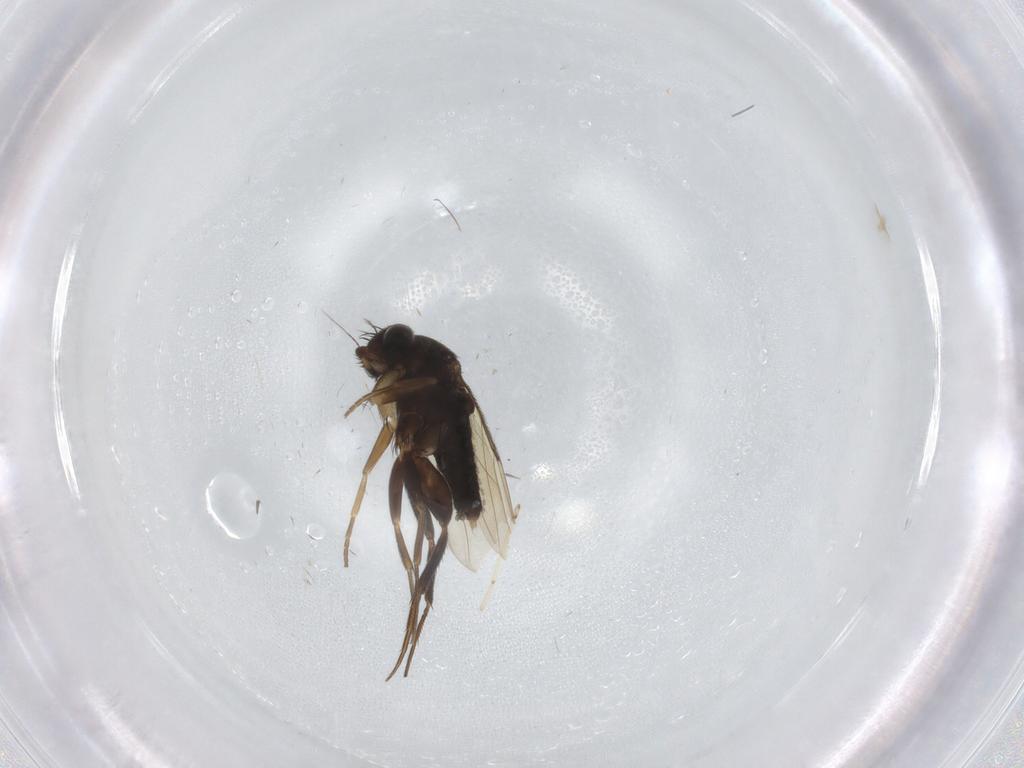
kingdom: Animalia
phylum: Arthropoda
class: Insecta
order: Diptera
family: Phoridae
